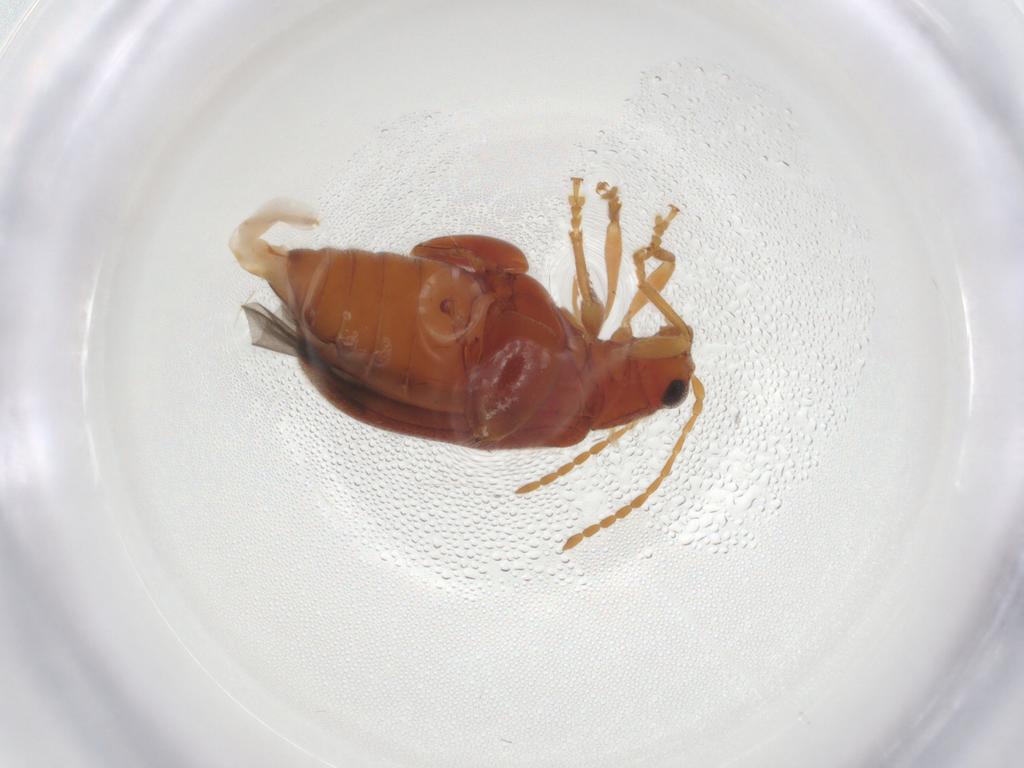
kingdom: Animalia
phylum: Arthropoda
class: Insecta
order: Coleoptera
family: Chrysomelidae
